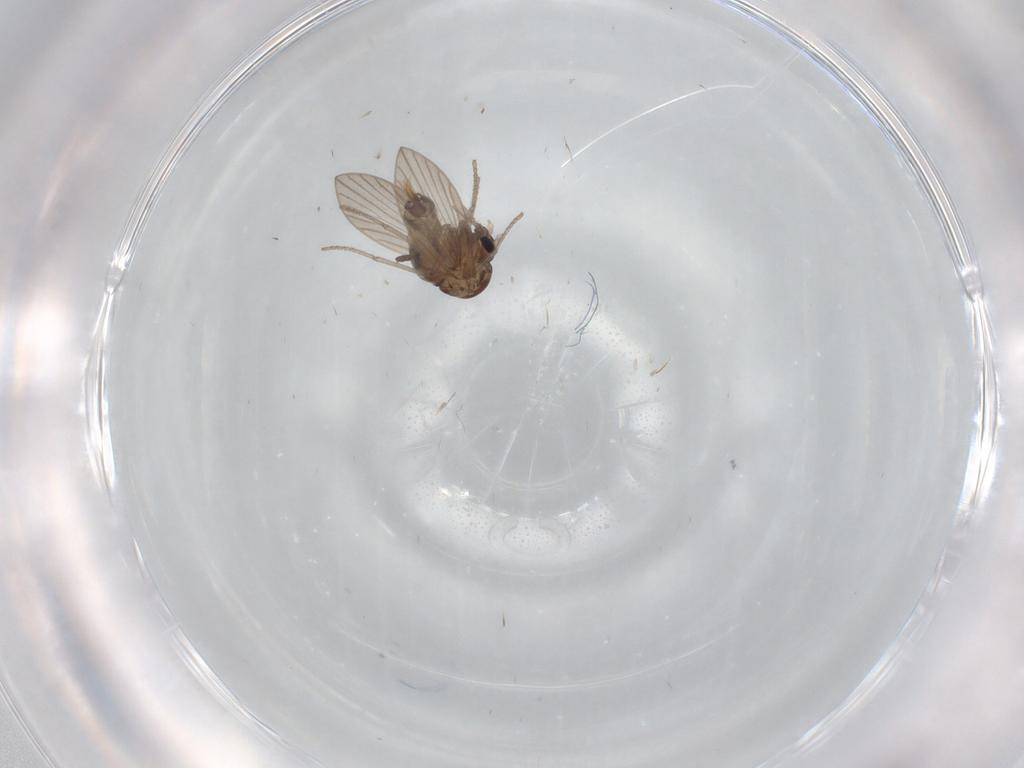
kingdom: Animalia
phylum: Arthropoda
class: Insecta
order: Diptera
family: Psychodidae
